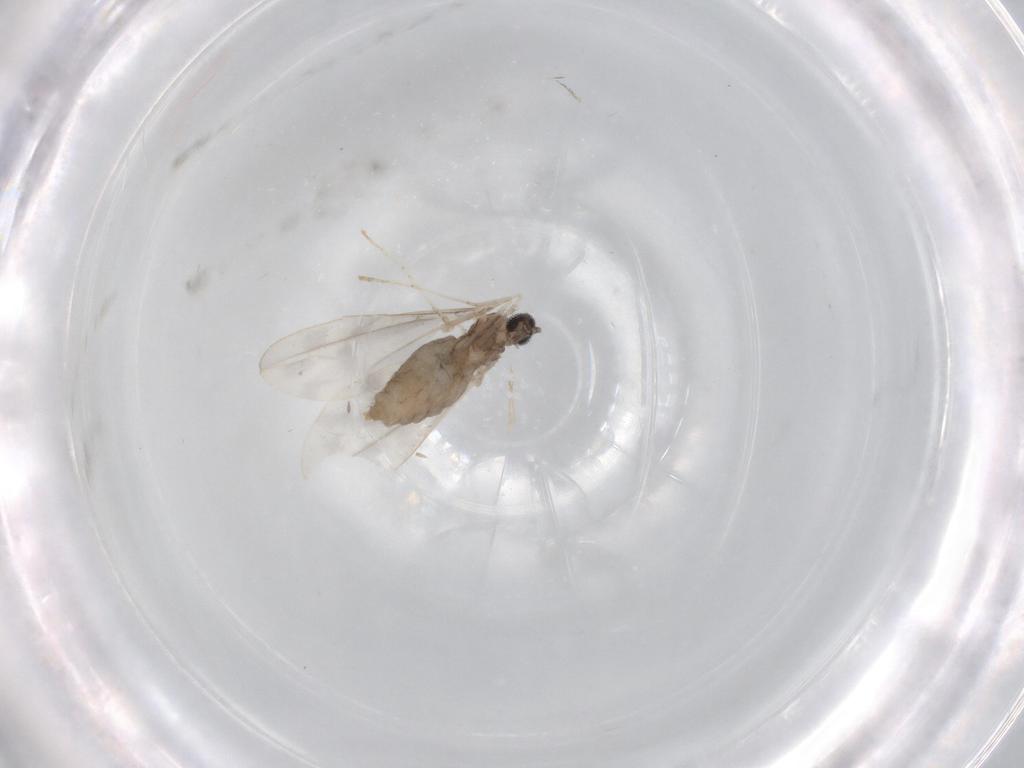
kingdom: Animalia
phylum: Arthropoda
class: Insecta
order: Diptera
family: Cecidomyiidae
